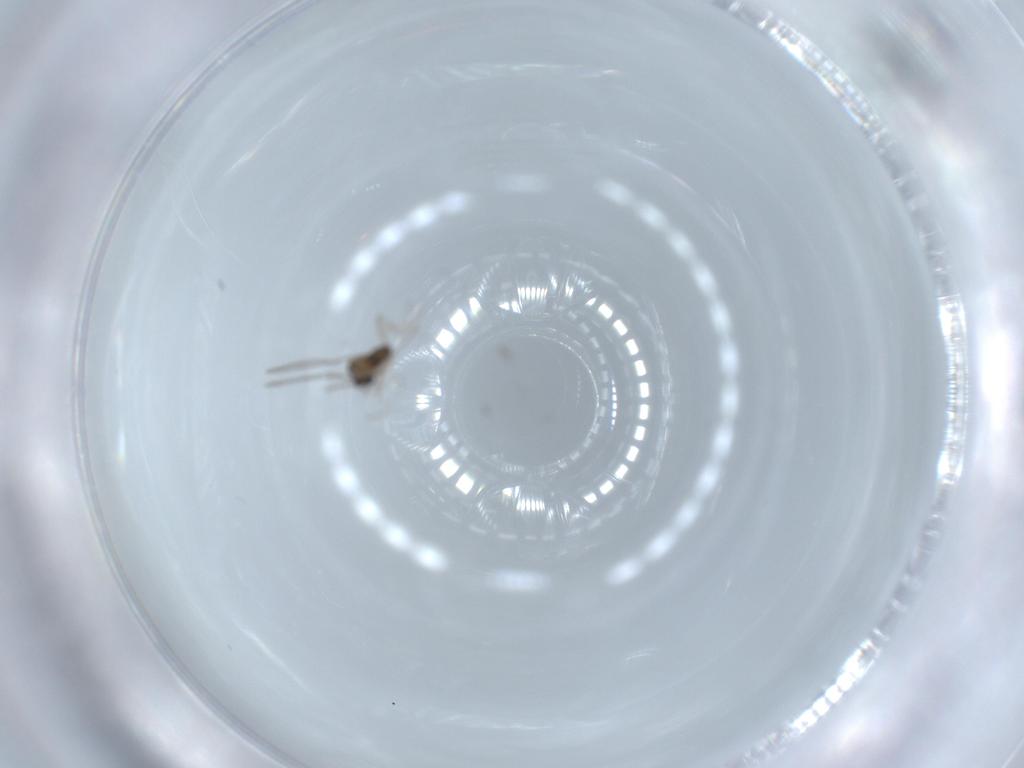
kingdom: Animalia
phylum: Arthropoda
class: Insecta
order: Diptera
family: Cecidomyiidae
